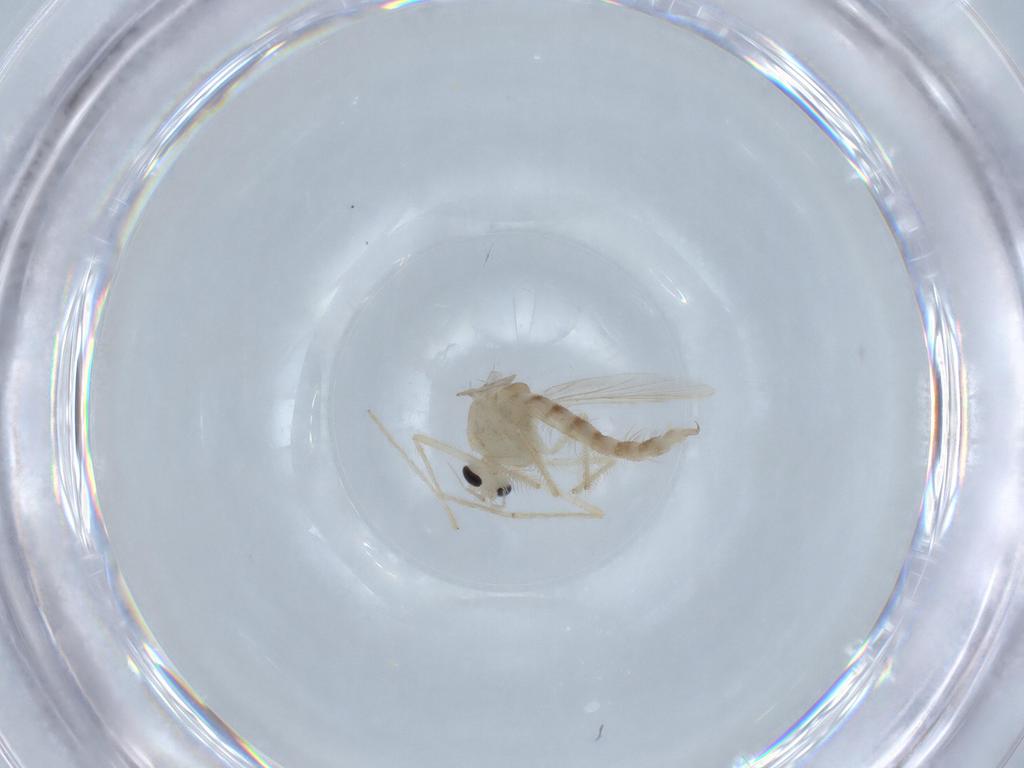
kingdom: Animalia
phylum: Arthropoda
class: Insecta
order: Diptera
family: Chironomidae
